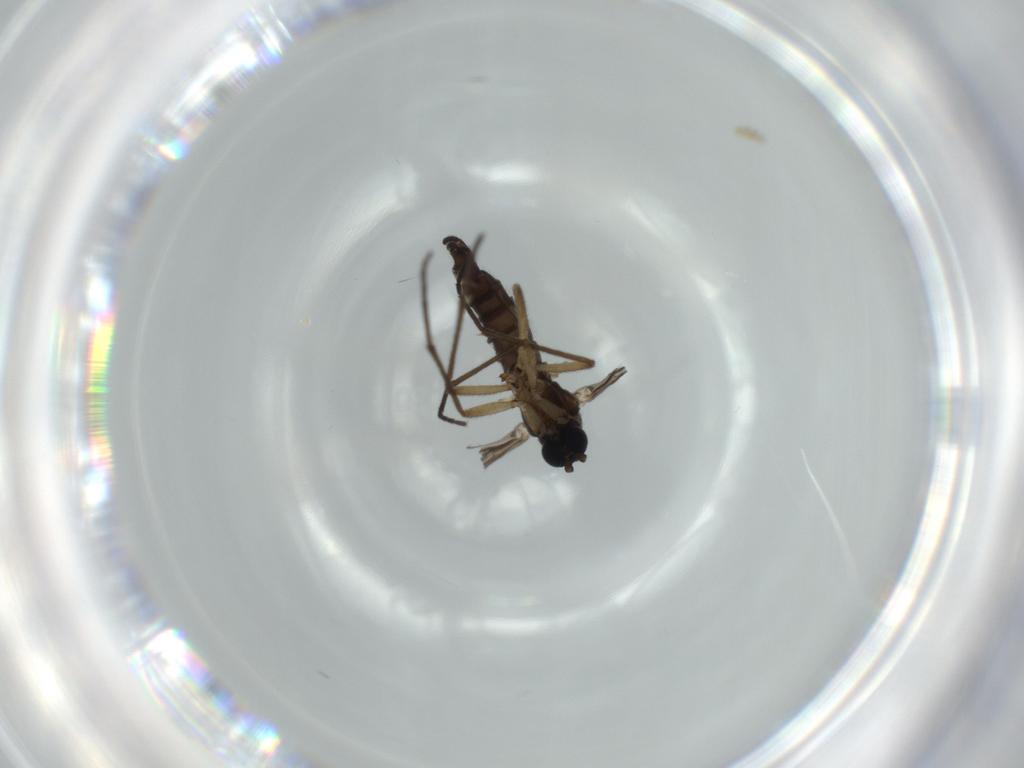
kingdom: Animalia
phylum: Arthropoda
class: Insecta
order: Diptera
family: Sciaridae
